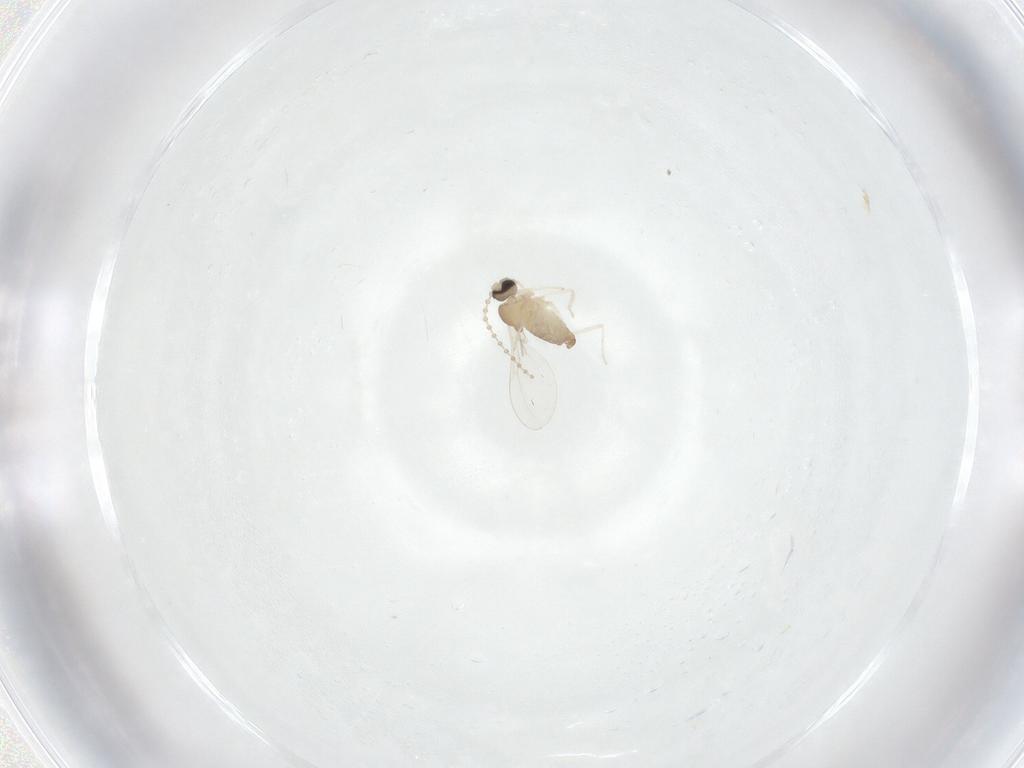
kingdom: Animalia
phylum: Arthropoda
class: Insecta
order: Diptera
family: Cecidomyiidae
